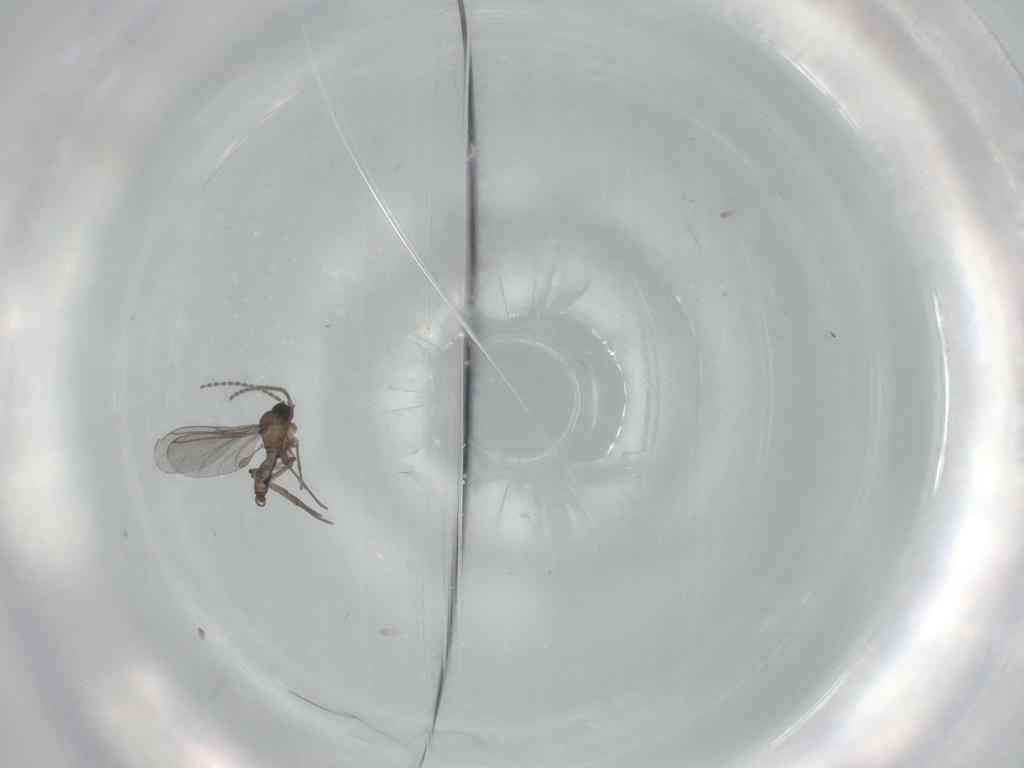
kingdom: Animalia
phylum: Arthropoda
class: Insecta
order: Diptera
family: Sciaridae
